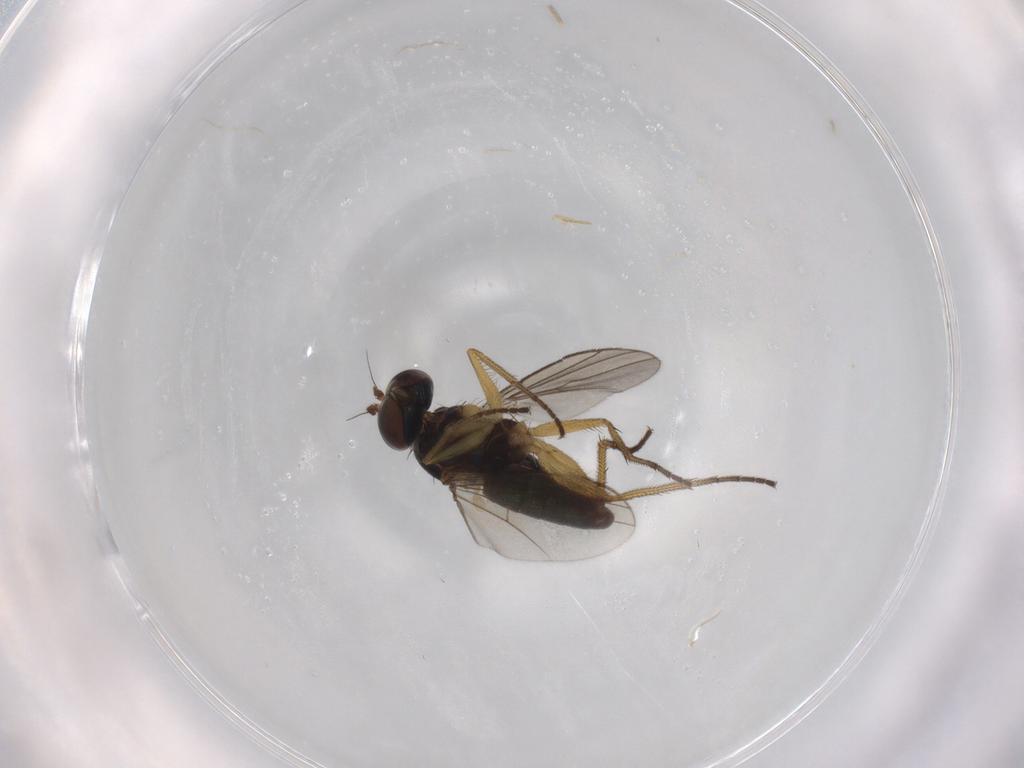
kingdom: Animalia
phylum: Arthropoda
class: Insecta
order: Diptera
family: Dolichopodidae
